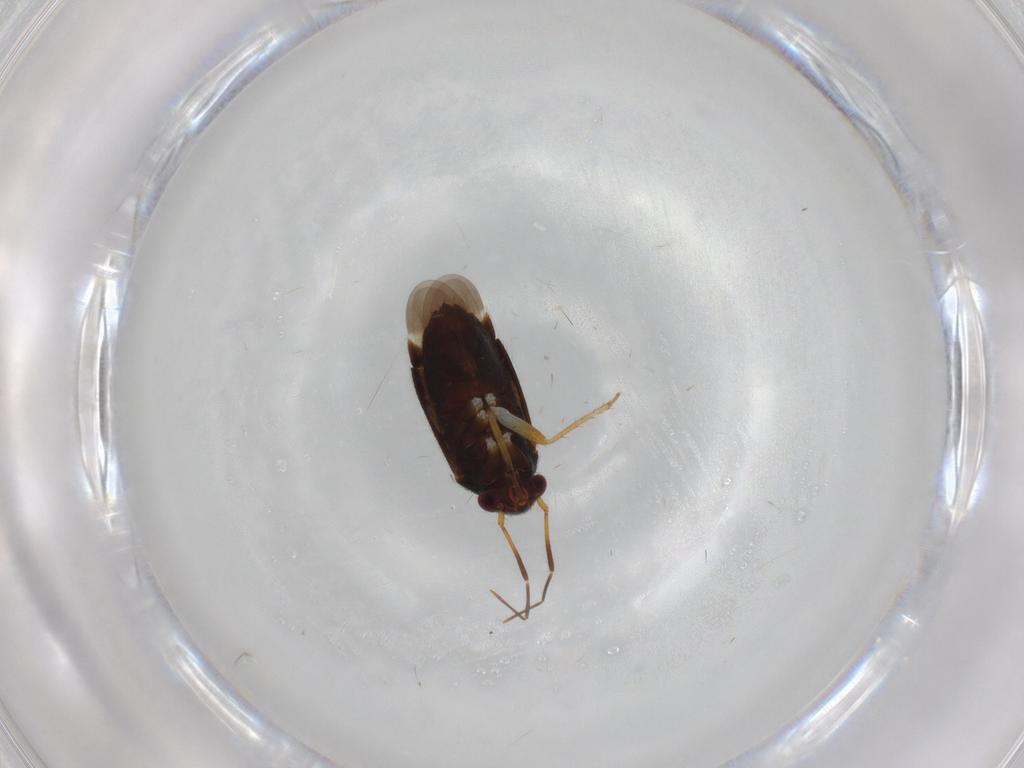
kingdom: Animalia
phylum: Arthropoda
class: Insecta
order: Hemiptera
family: Miridae
